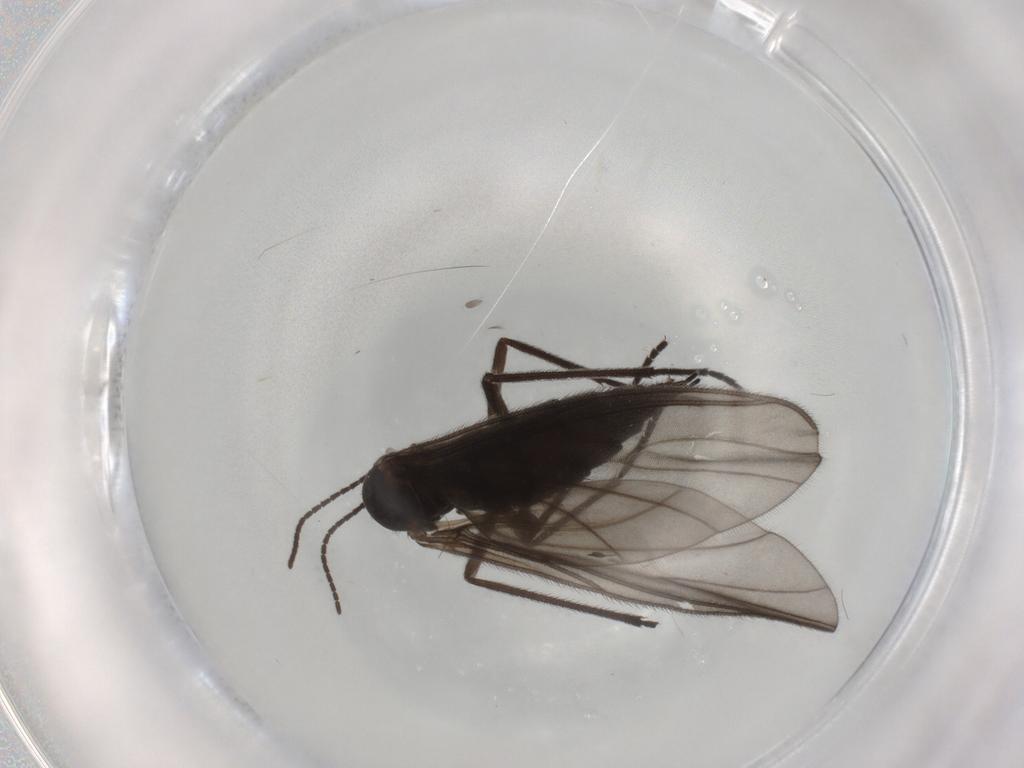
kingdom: Animalia
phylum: Arthropoda
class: Insecta
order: Diptera
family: Sciaridae
